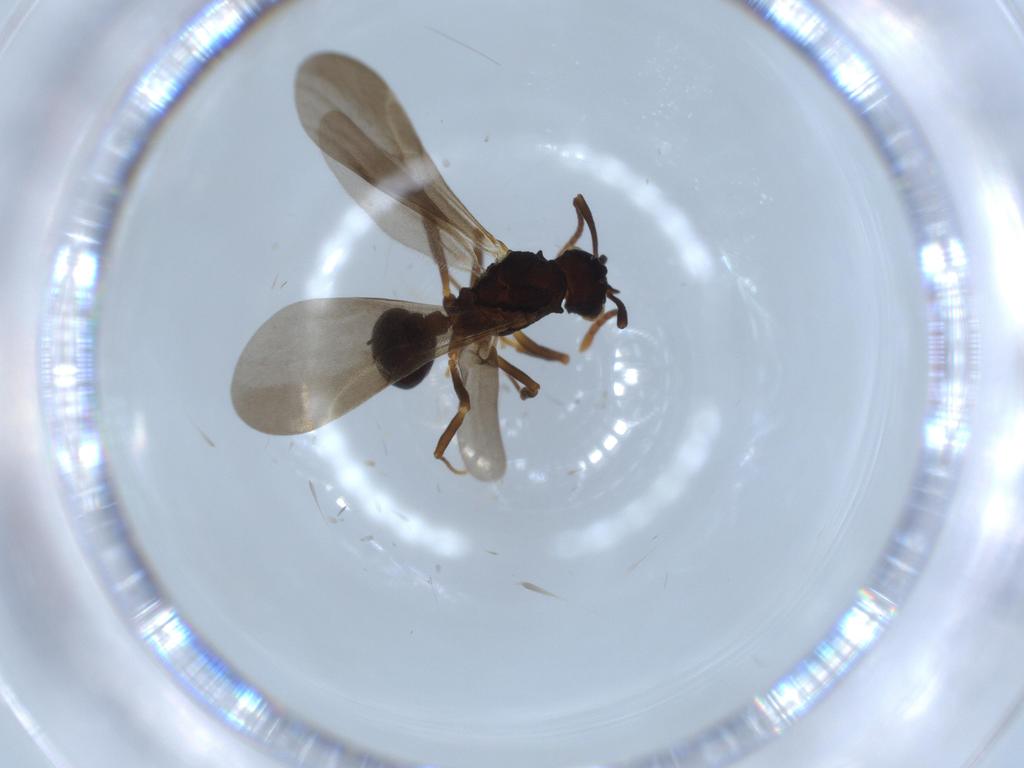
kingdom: Animalia
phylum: Arthropoda
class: Insecta
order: Hymenoptera
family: Formicidae
